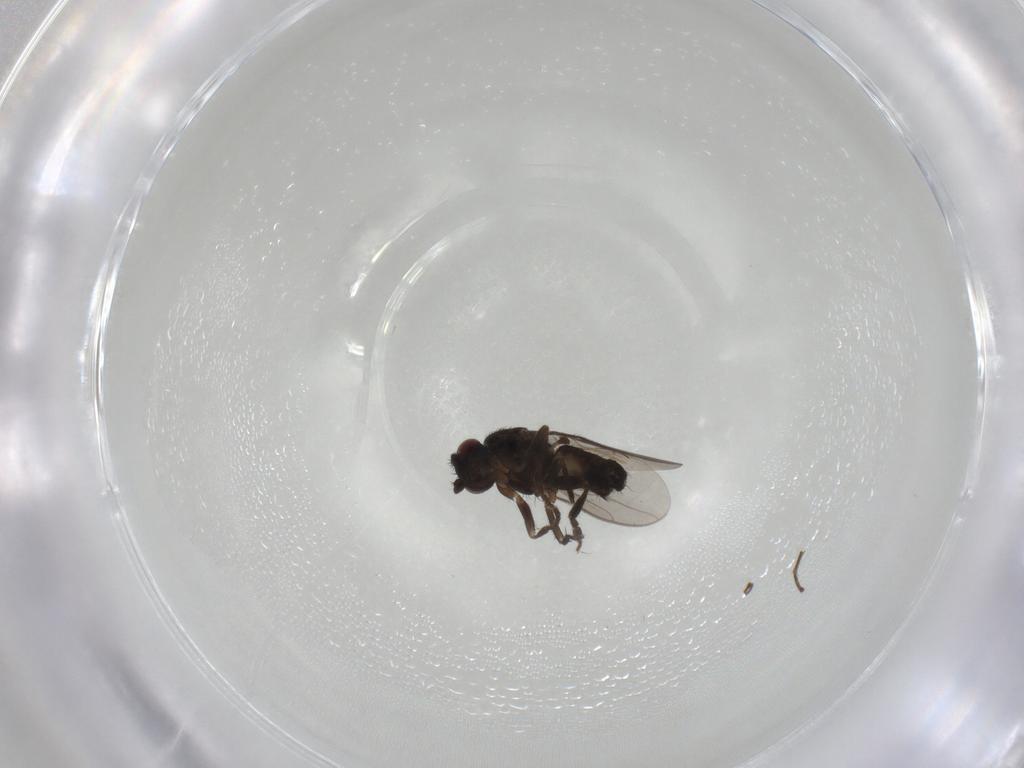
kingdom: Animalia
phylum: Arthropoda
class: Insecta
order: Diptera
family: Sphaeroceridae
